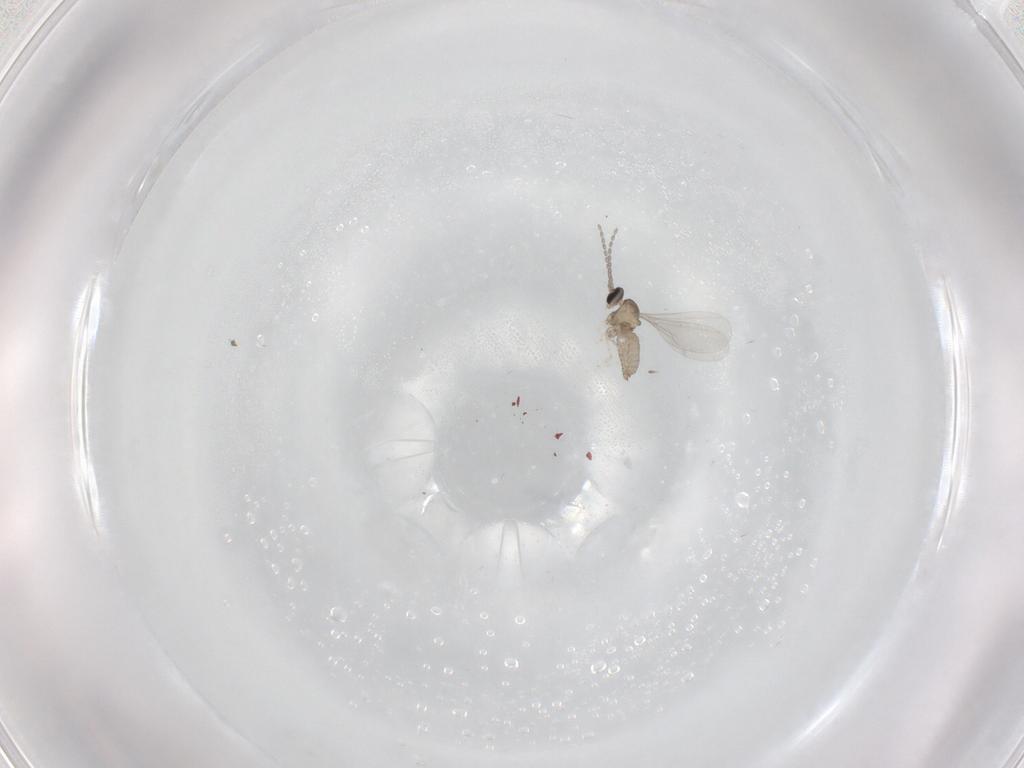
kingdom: Animalia
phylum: Arthropoda
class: Insecta
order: Diptera
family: Cecidomyiidae
